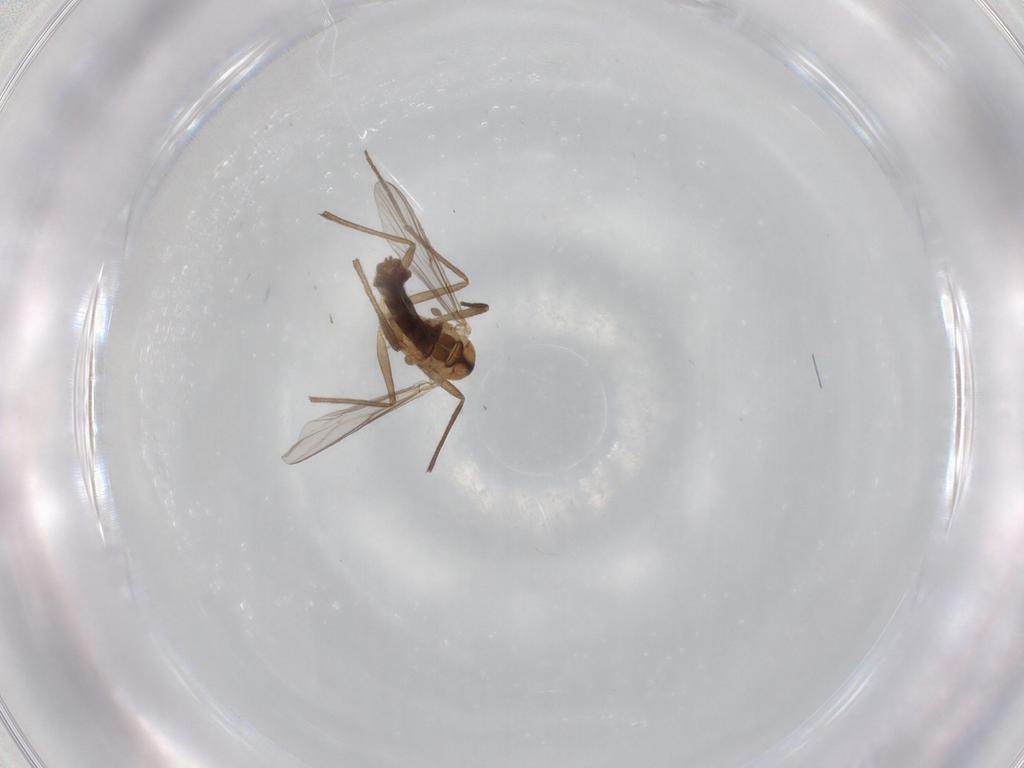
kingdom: Animalia
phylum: Arthropoda
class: Insecta
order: Diptera
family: Chironomidae
